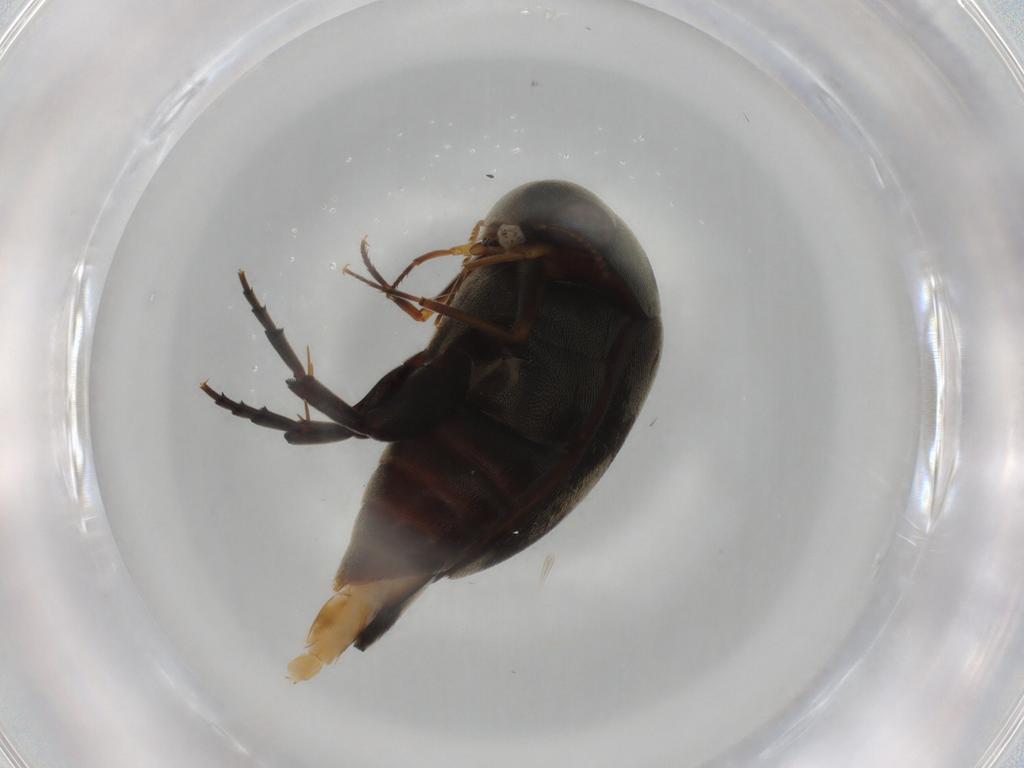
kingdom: Animalia
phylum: Arthropoda
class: Insecta
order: Coleoptera
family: Mordellidae
